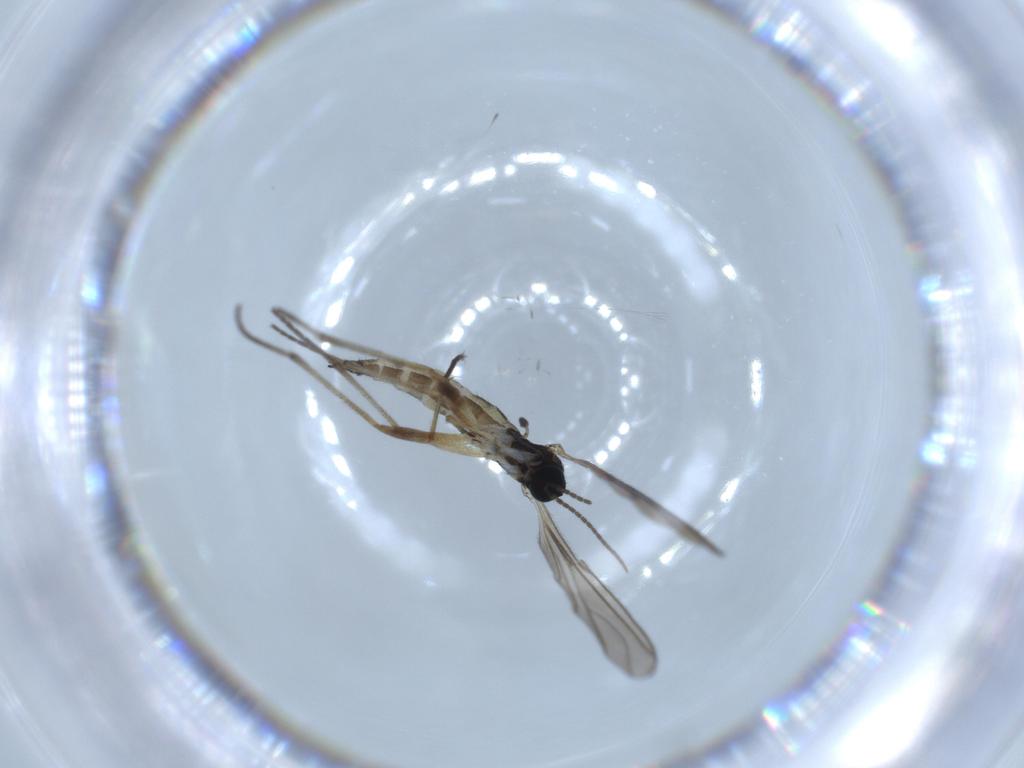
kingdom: Animalia
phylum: Arthropoda
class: Insecta
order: Diptera
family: Sciaridae
